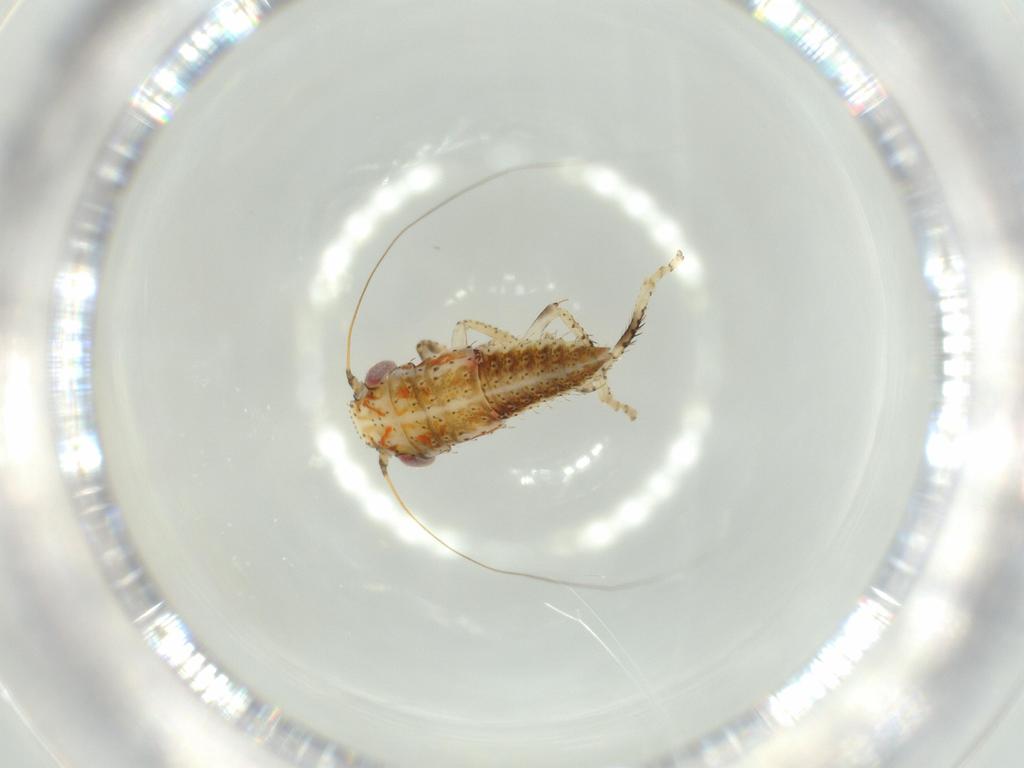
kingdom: Animalia
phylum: Arthropoda
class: Insecta
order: Hemiptera
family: Cicadellidae
